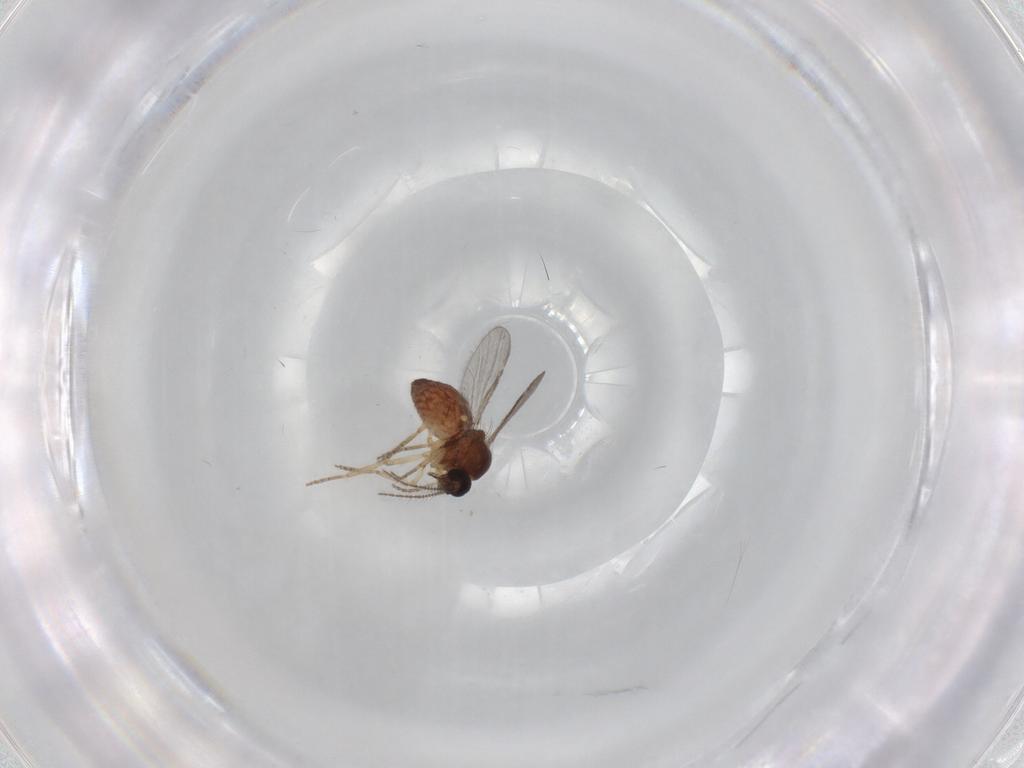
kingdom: Animalia
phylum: Arthropoda
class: Insecta
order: Diptera
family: Ceratopogonidae
